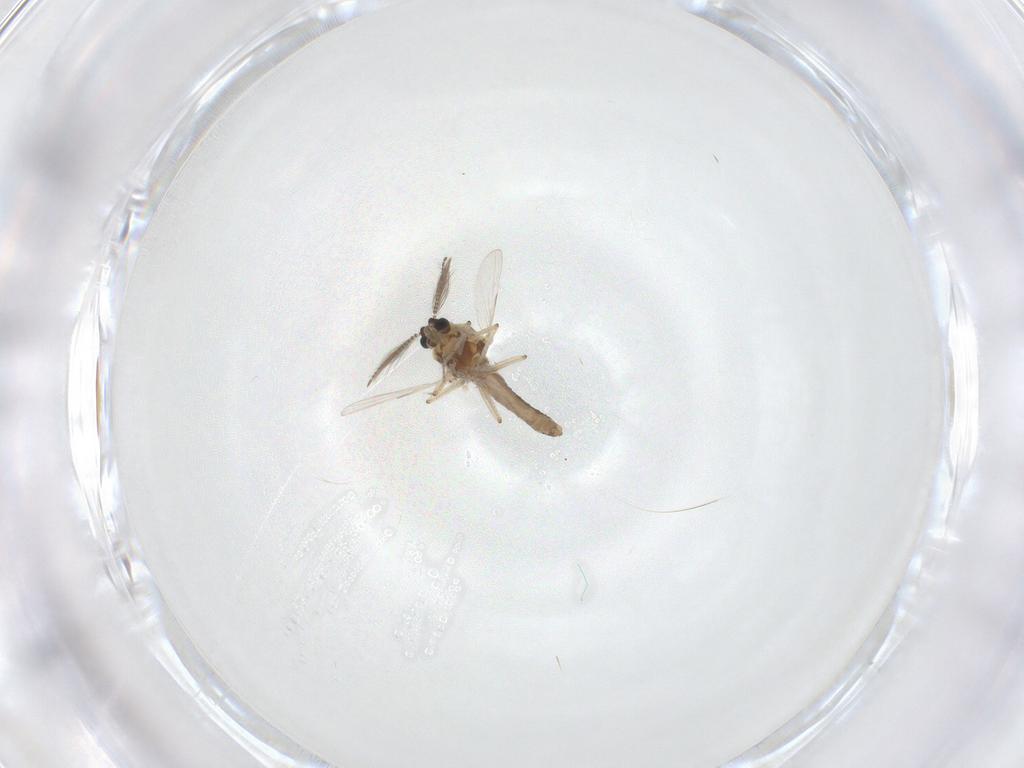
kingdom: Animalia
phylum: Arthropoda
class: Insecta
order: Diptera
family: Ceratopogonidae
